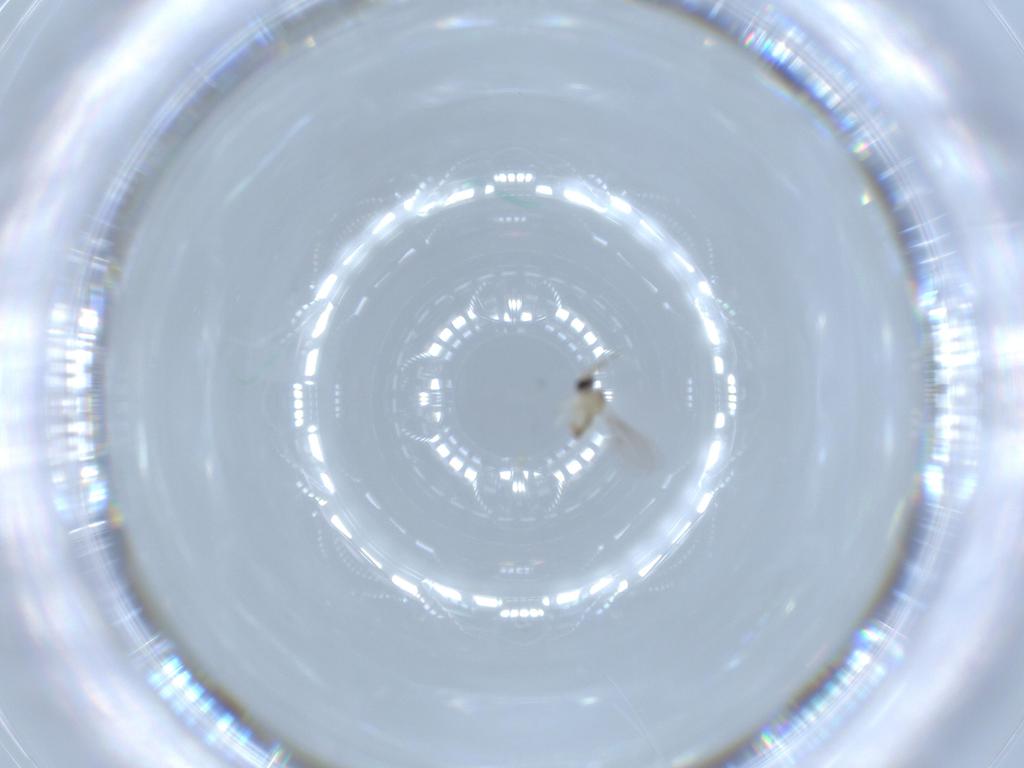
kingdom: Animalia
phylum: Arthropoda
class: Insecta
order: Diptera
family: Cecidomyiidae
